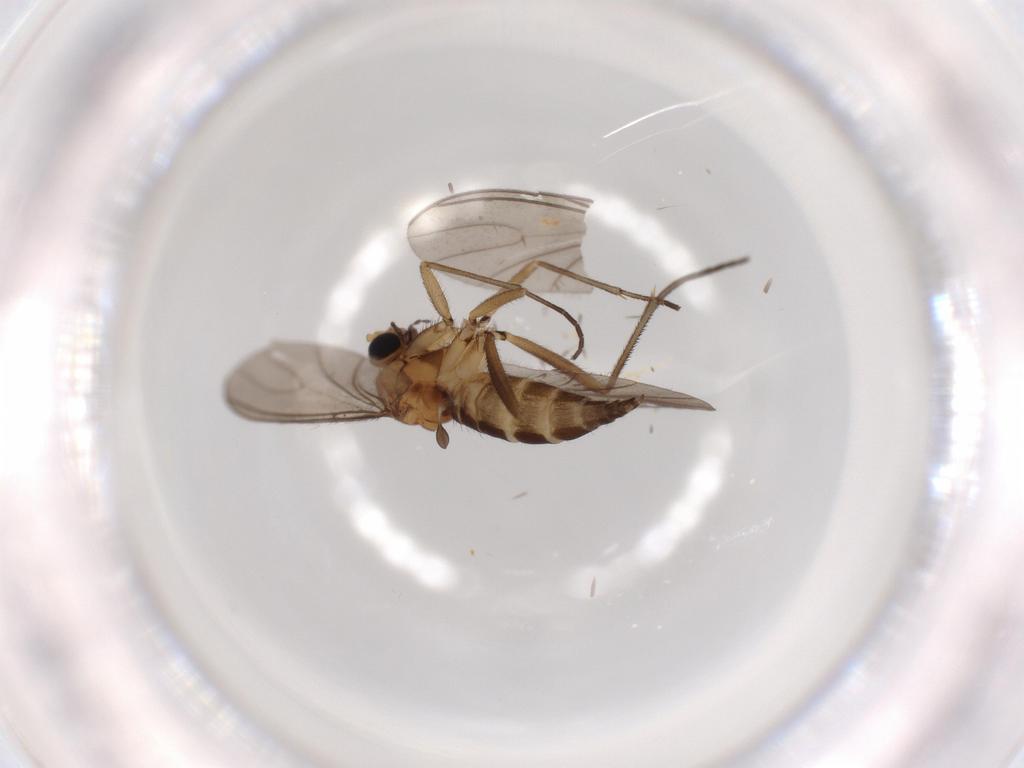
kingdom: Animalia
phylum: Arthropoda
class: Insecta
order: Diptera
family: Sciaridae
